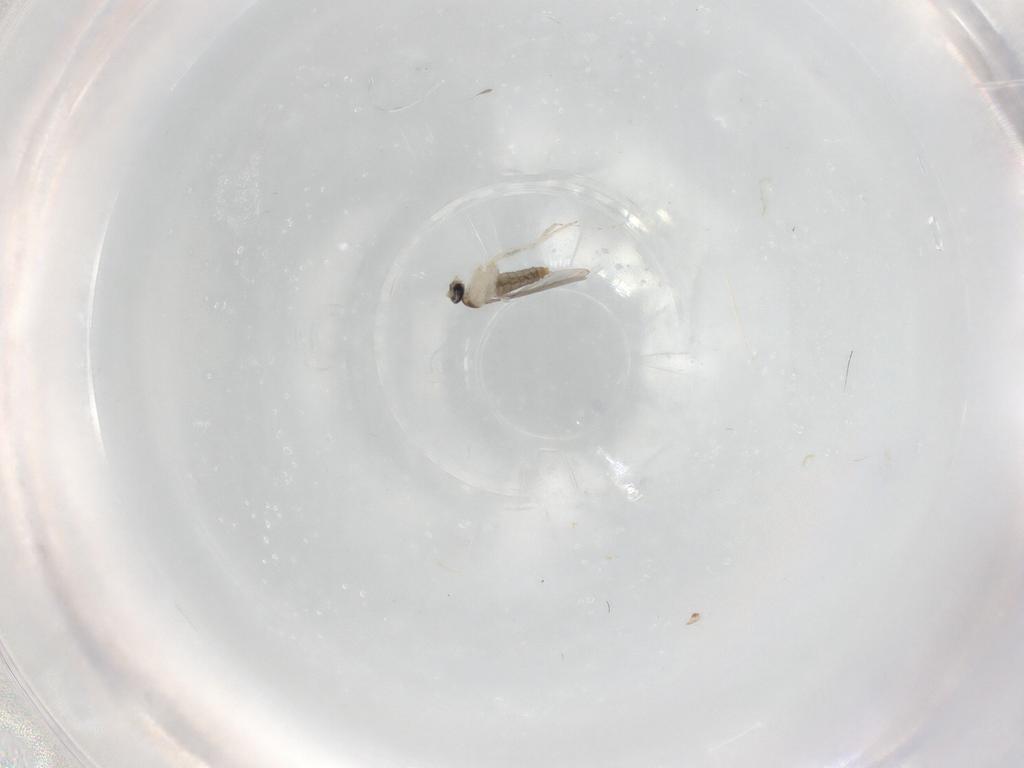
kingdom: Animalia
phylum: Arthropoda
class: Insecta
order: Diptera
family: Cecidomyiidae
